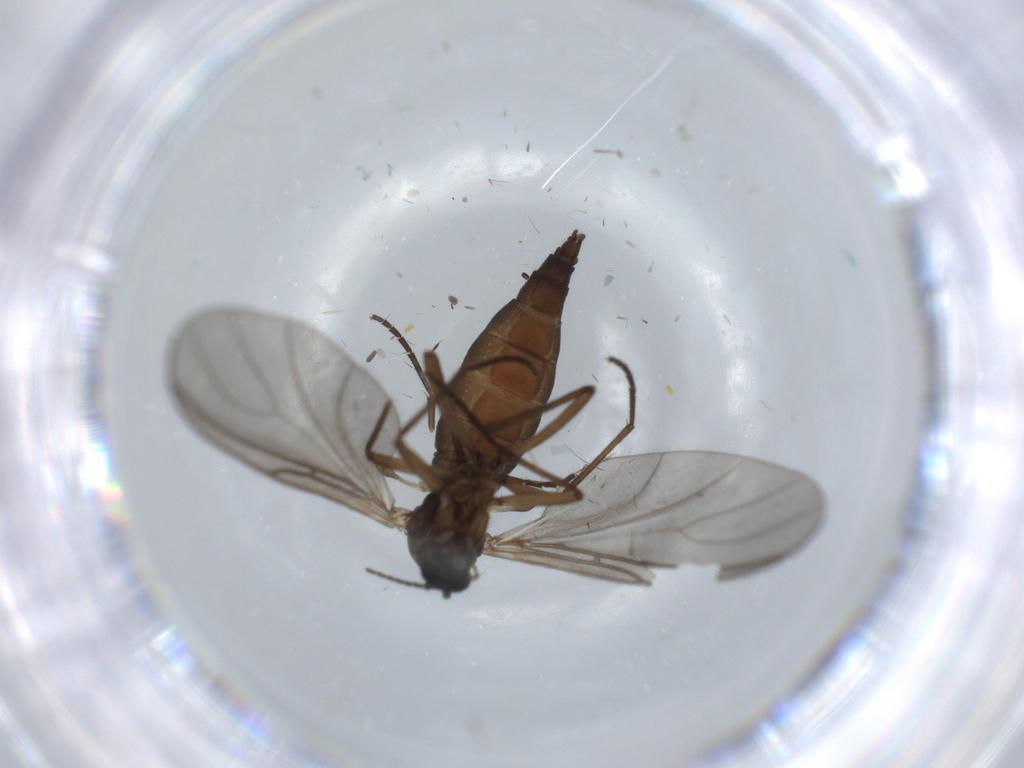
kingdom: Animalia
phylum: Arthropoda
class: Insecta
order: Diptera
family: Sciaridae
